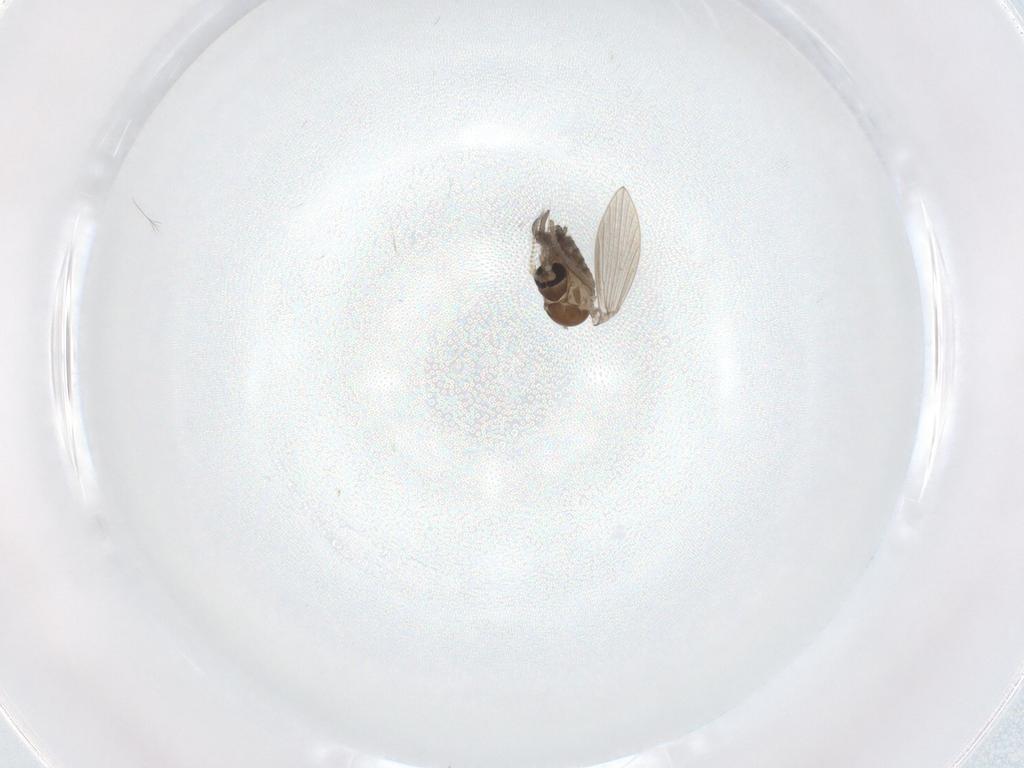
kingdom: Animalia
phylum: Arthropoda
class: Insecta
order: Diptera
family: Psychodidae
